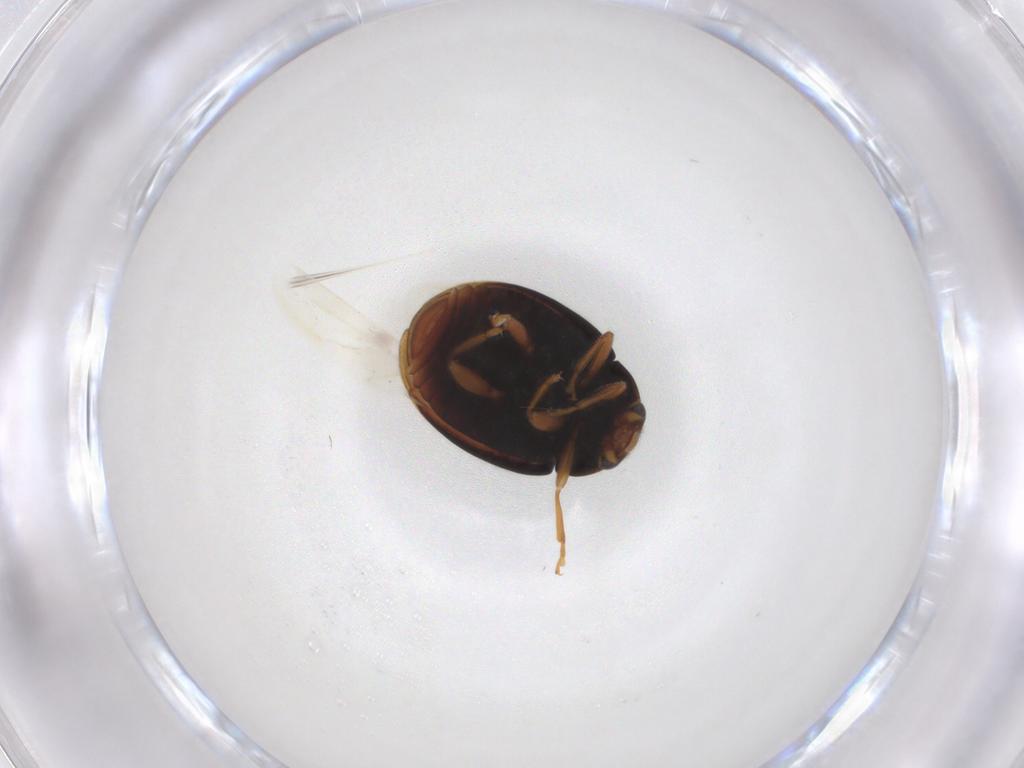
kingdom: Animalia
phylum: Arthropoda
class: Insecta
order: Coleoptera
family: Coccinellidae
